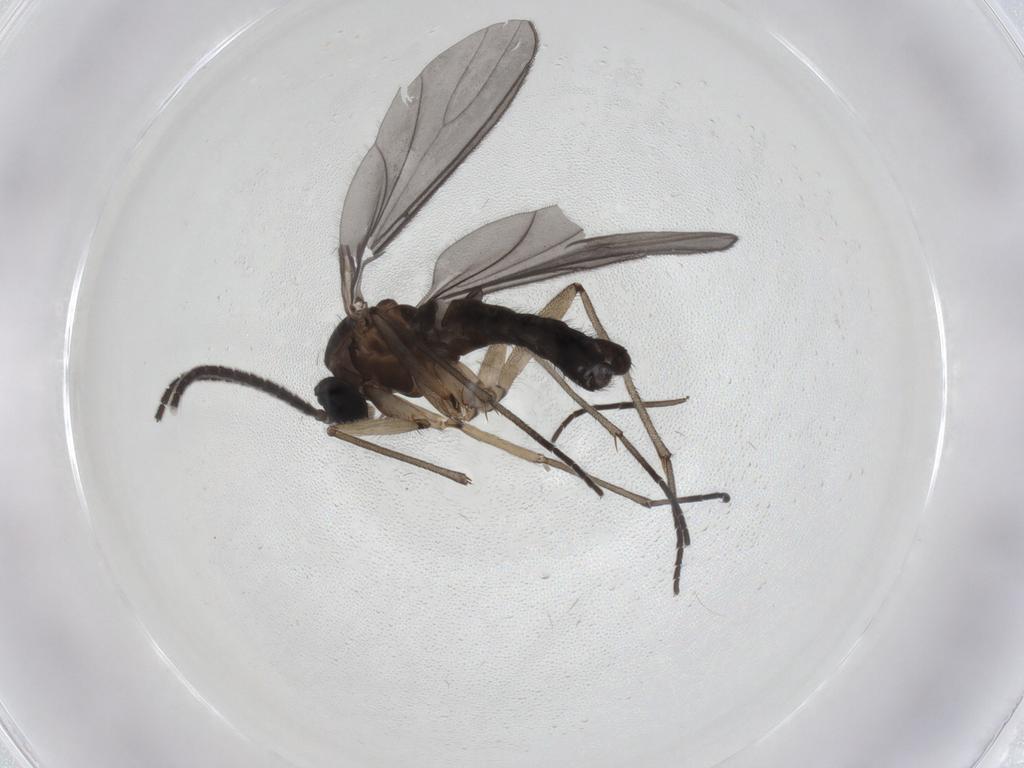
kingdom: Animalia
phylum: Arthropoda
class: Insecta
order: Diptera
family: Sciaridae
